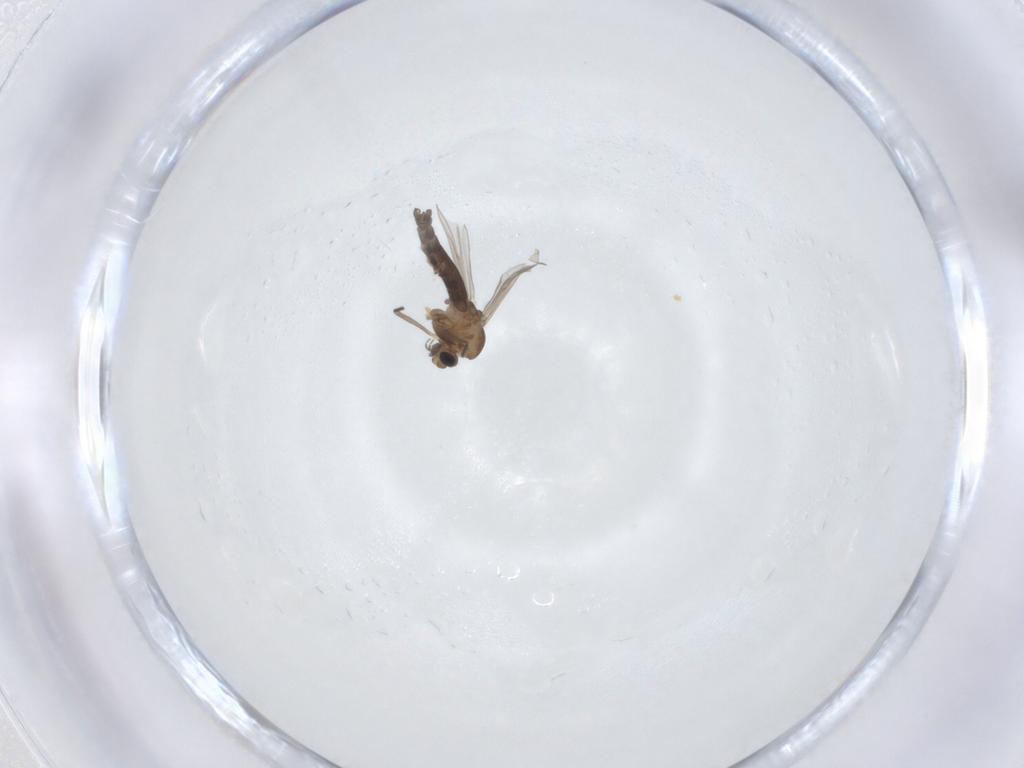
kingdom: Animalia
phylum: Arthropoda
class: Insecta
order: Diptera
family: Chironomidae
